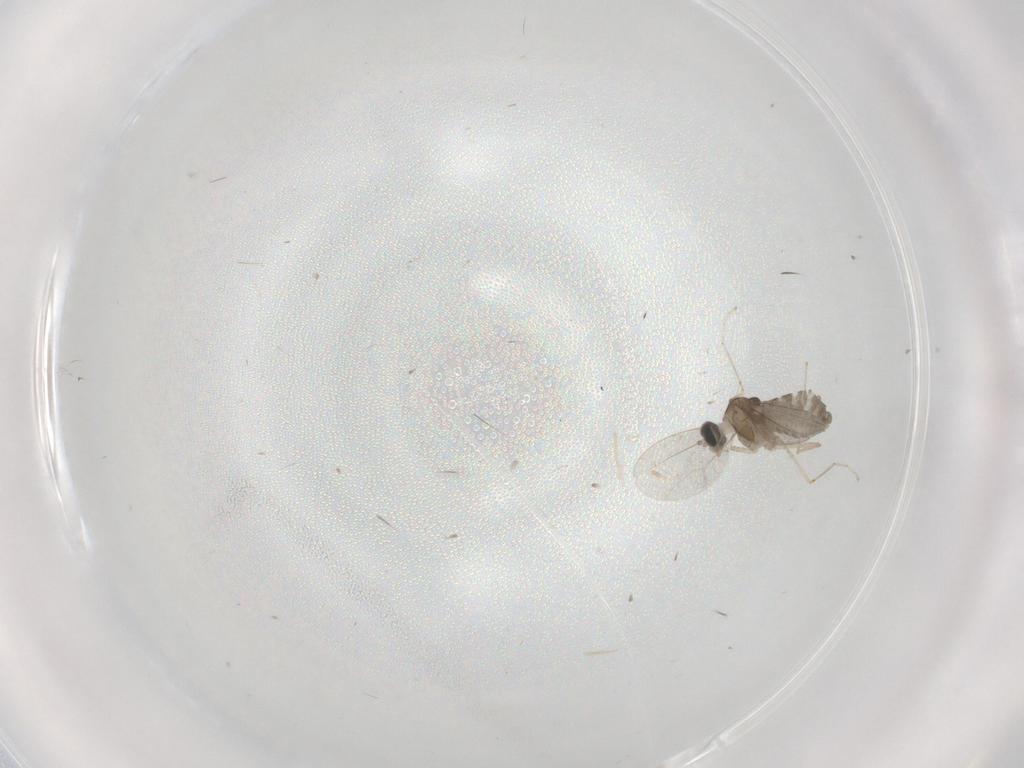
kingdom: Animalia
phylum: Arthropoda
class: Insecta
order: Diptera
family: Cecidomyiidae
